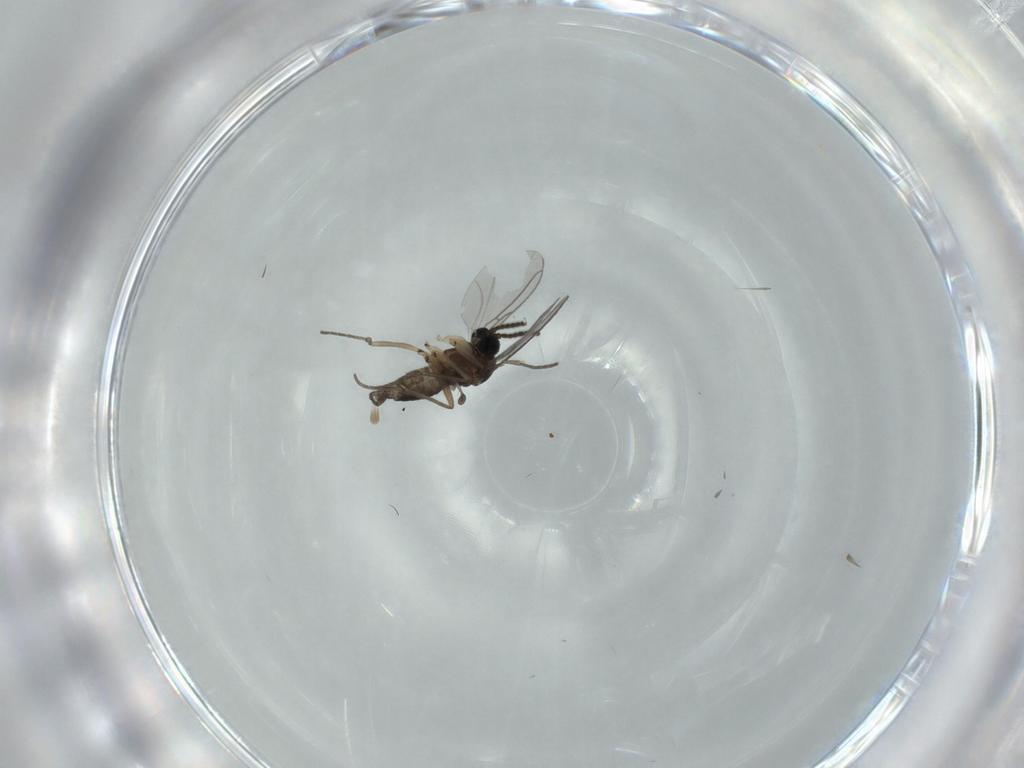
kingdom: Animalia
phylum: Arthropoda
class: Insecta
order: Diptera
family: Sciaridae
